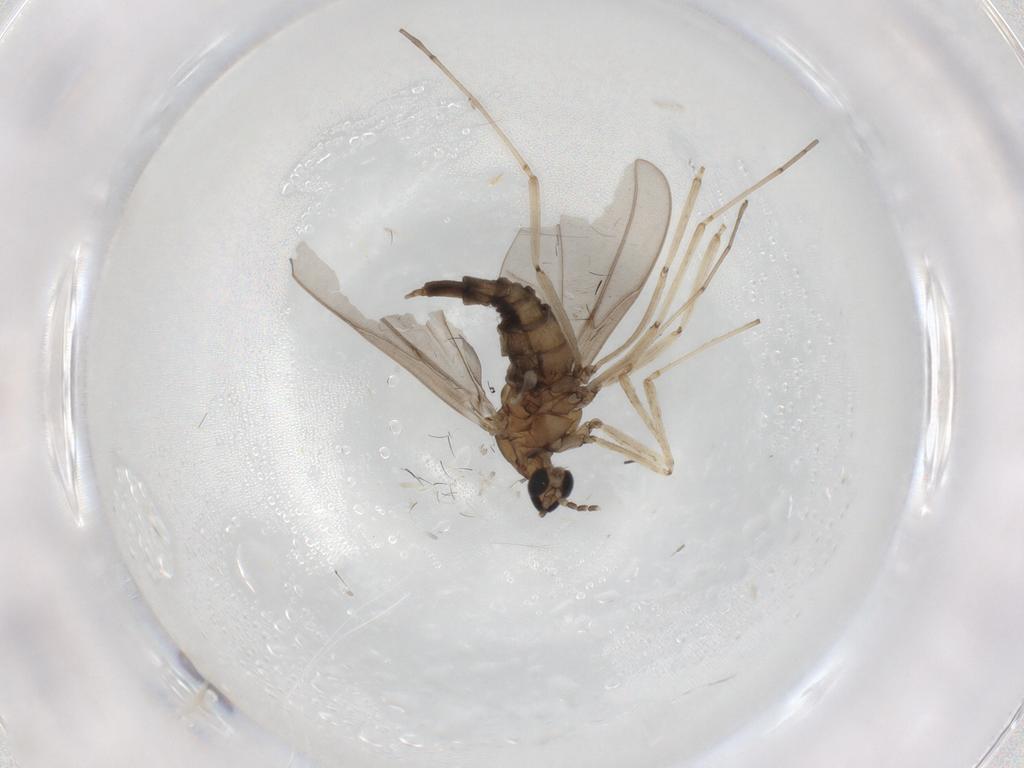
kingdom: Animalia
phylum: Arthropoda
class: Insecta
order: Diptera
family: Cecidomyiidae
